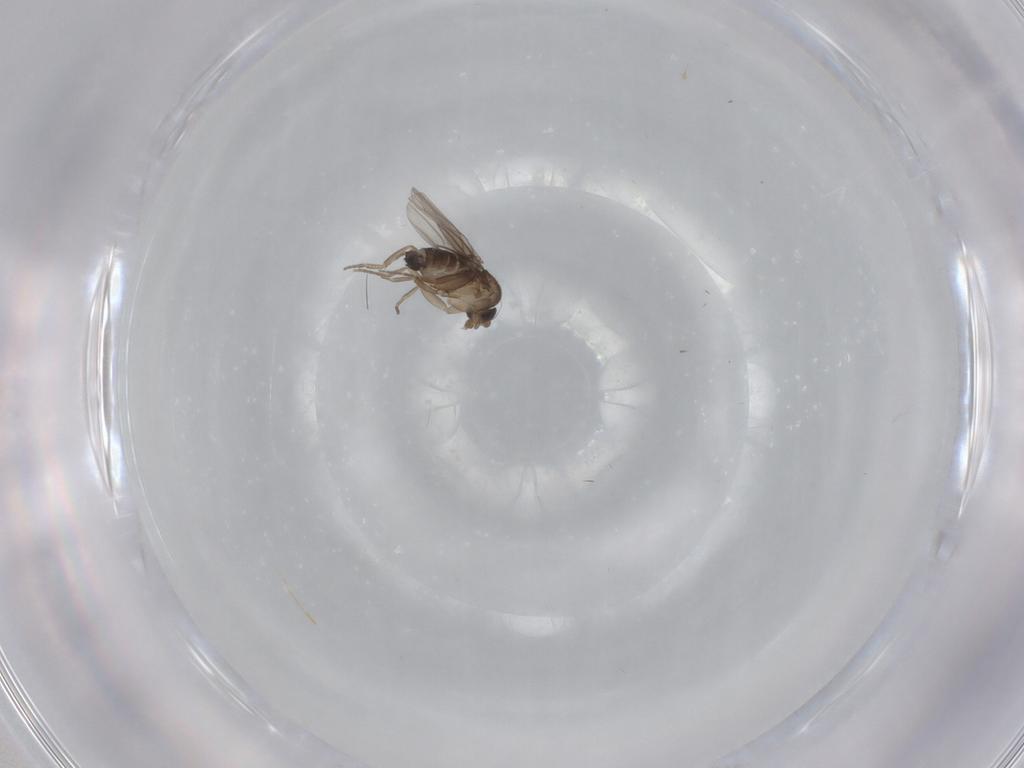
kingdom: Animalia
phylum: Arthropoda
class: Insecta
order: Diptera
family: Phoridae
